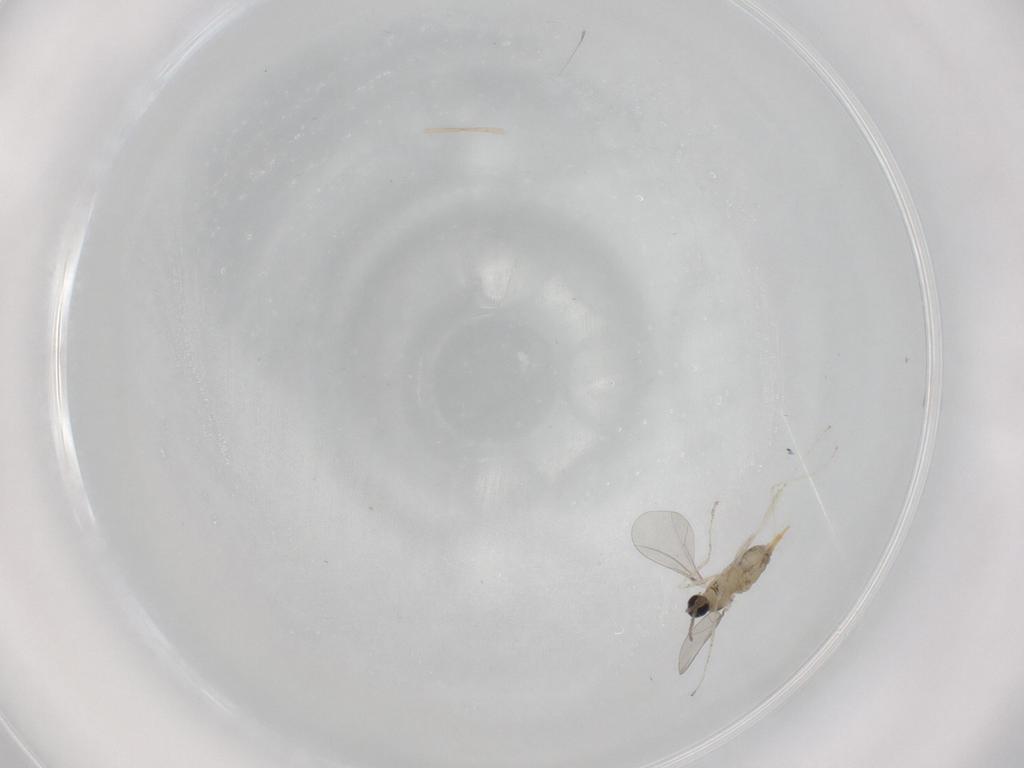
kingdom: Animalia
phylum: Arthropoda
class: Insecta
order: Diptera
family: Cecidomyiidae
